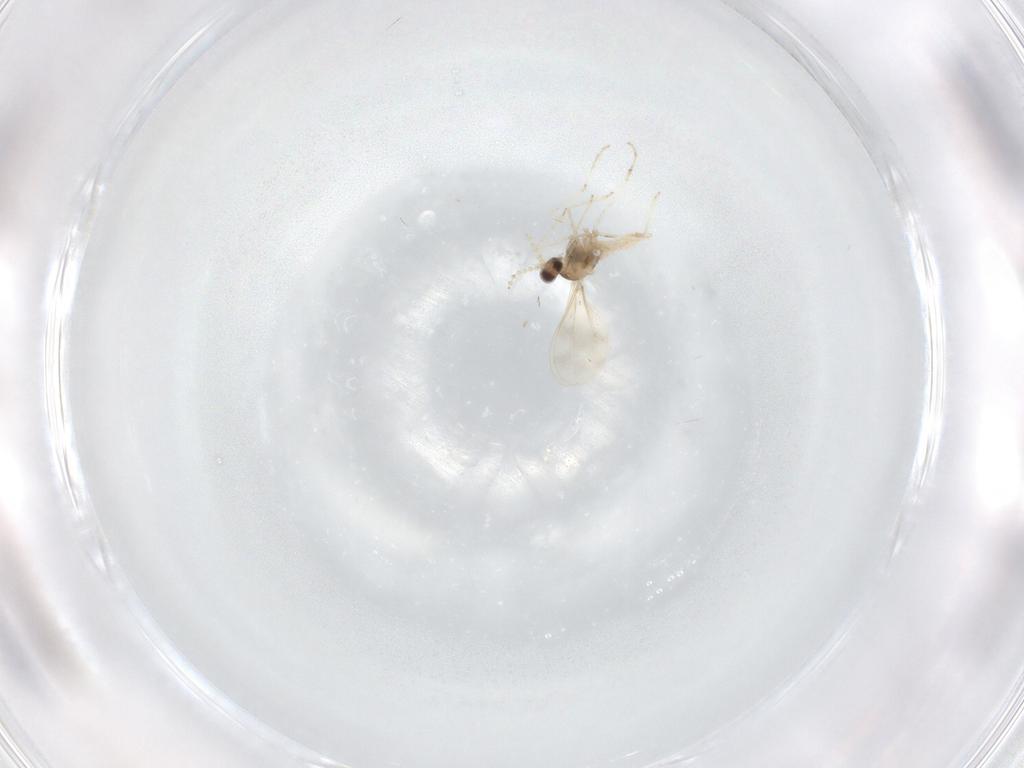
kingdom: Animalia
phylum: Arthropoda
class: Insecta
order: Diptera
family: Cecidomyiidae
